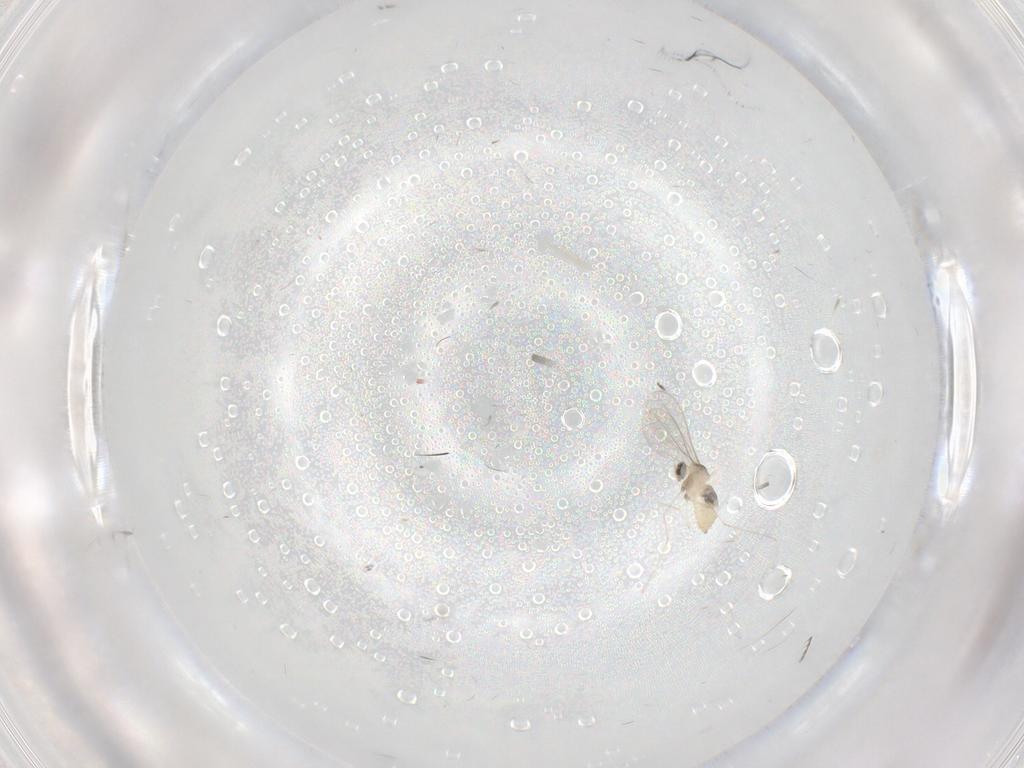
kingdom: Animalia
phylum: Arthropoda
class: Insecta
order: Diptera
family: Cecidomyiidae
